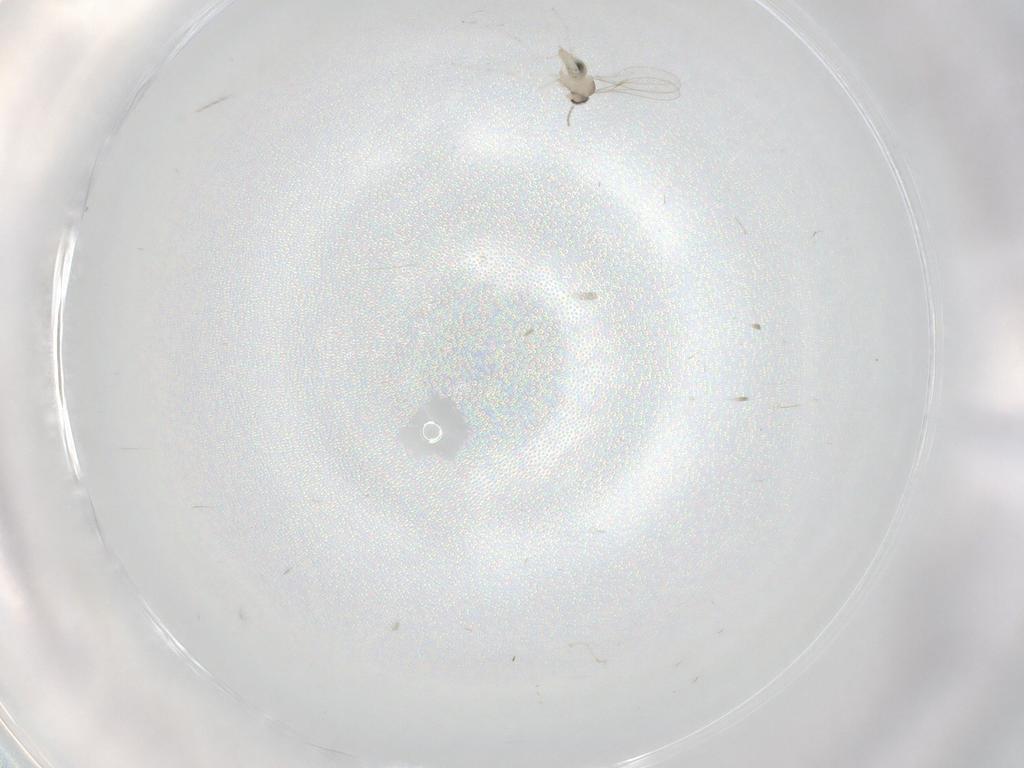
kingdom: Animalia
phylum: Arthropoda
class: Insecta
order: Diptera
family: Cecidomyiidae
